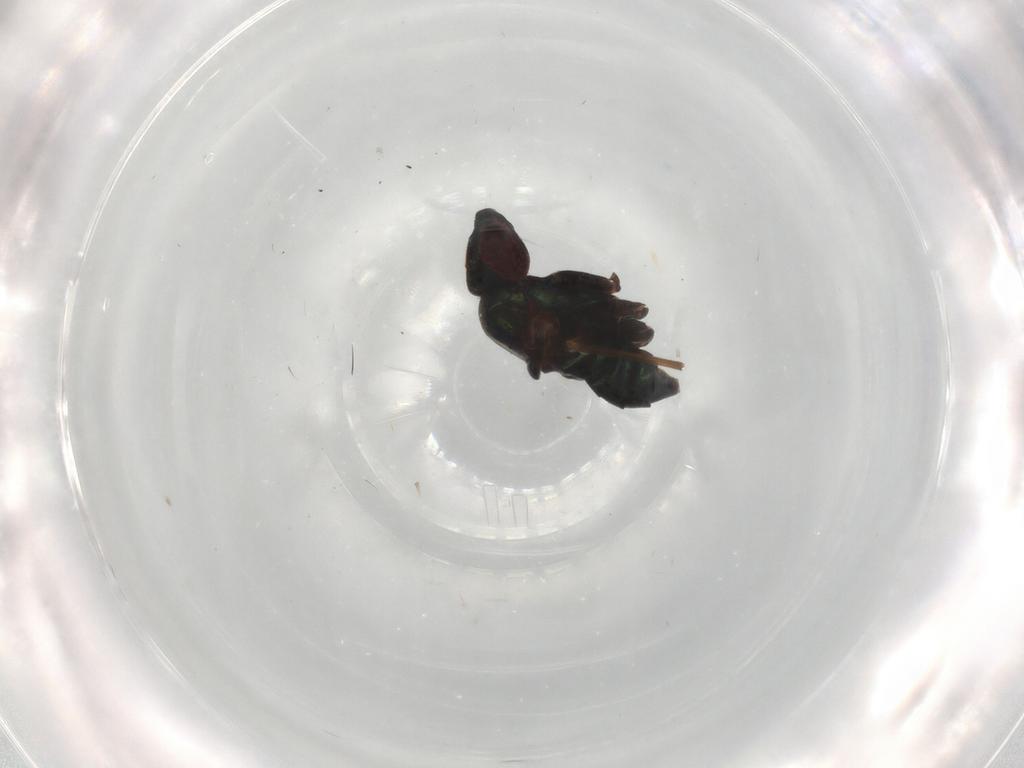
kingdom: Animalia
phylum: Arthropoda
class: Insecta
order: Diptera
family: Dolichopodidae
